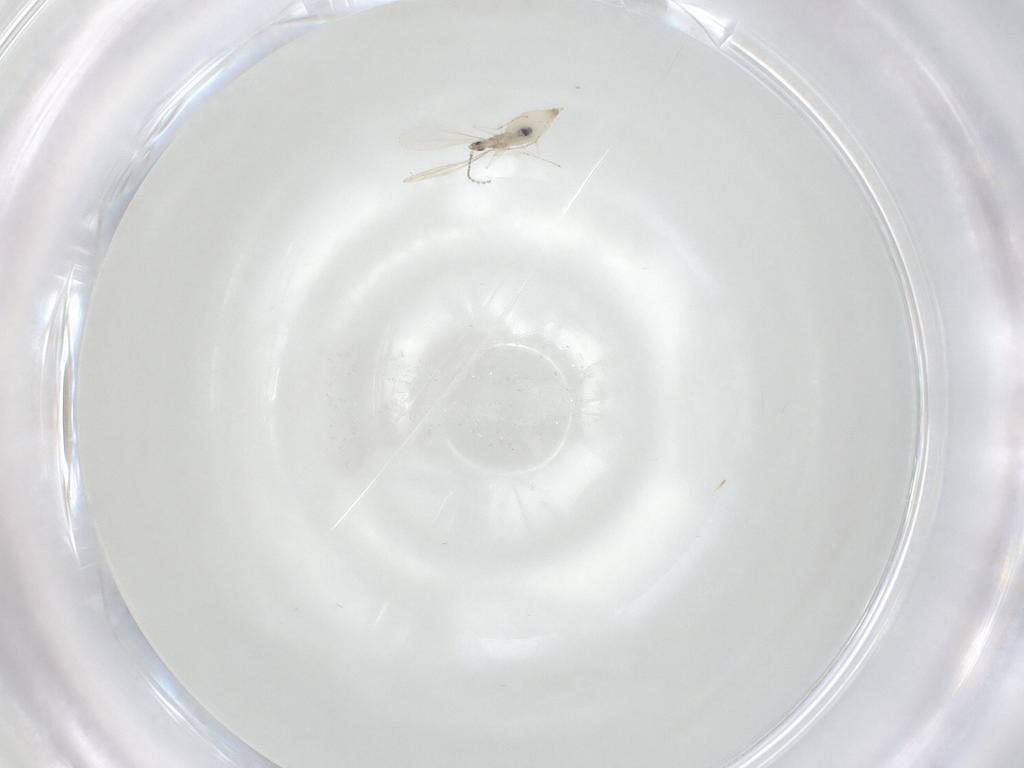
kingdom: Animalia
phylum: Arthropoda
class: Insecta
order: Diptera
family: Cecidomyiidae
